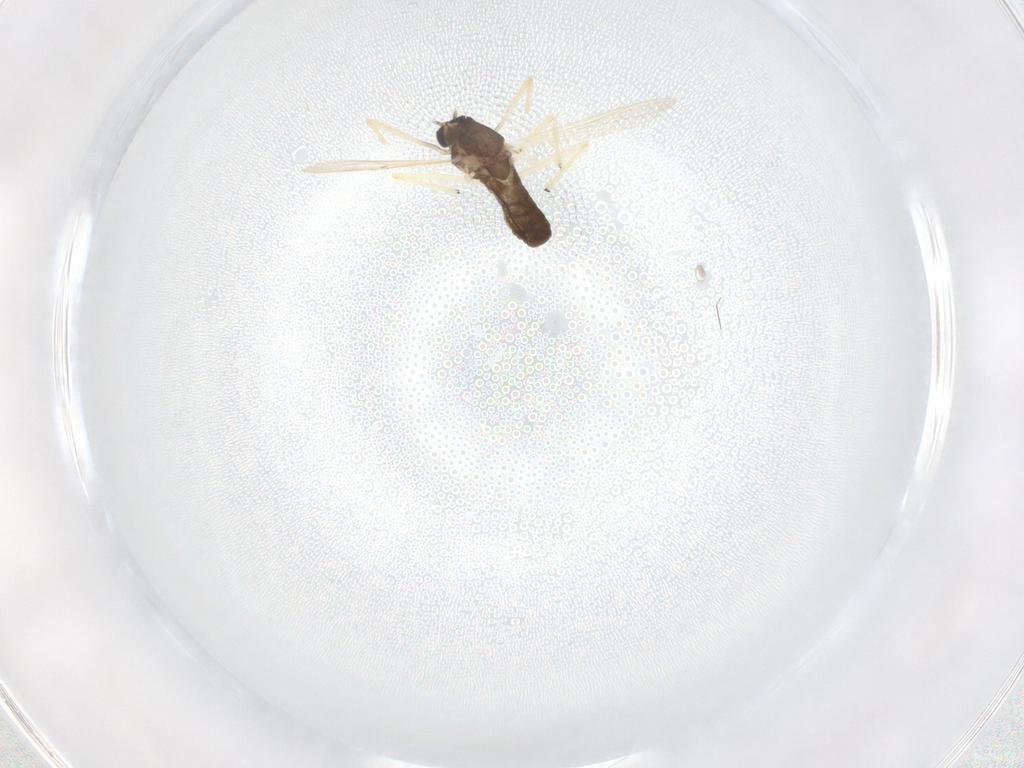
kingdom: Animalia
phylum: Arthropoda
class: Insecta
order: Diptera
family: Chironomidae
